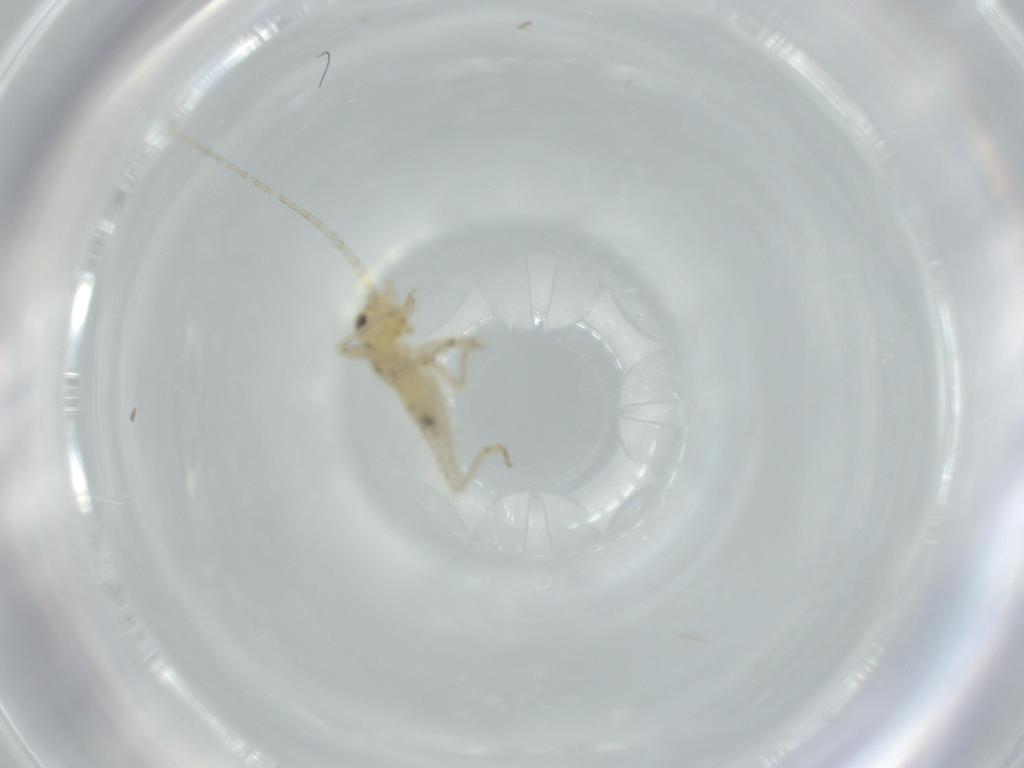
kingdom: Animalia
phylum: Arthropoda
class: Insecta
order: Orthoptera
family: Trigonidiidae
